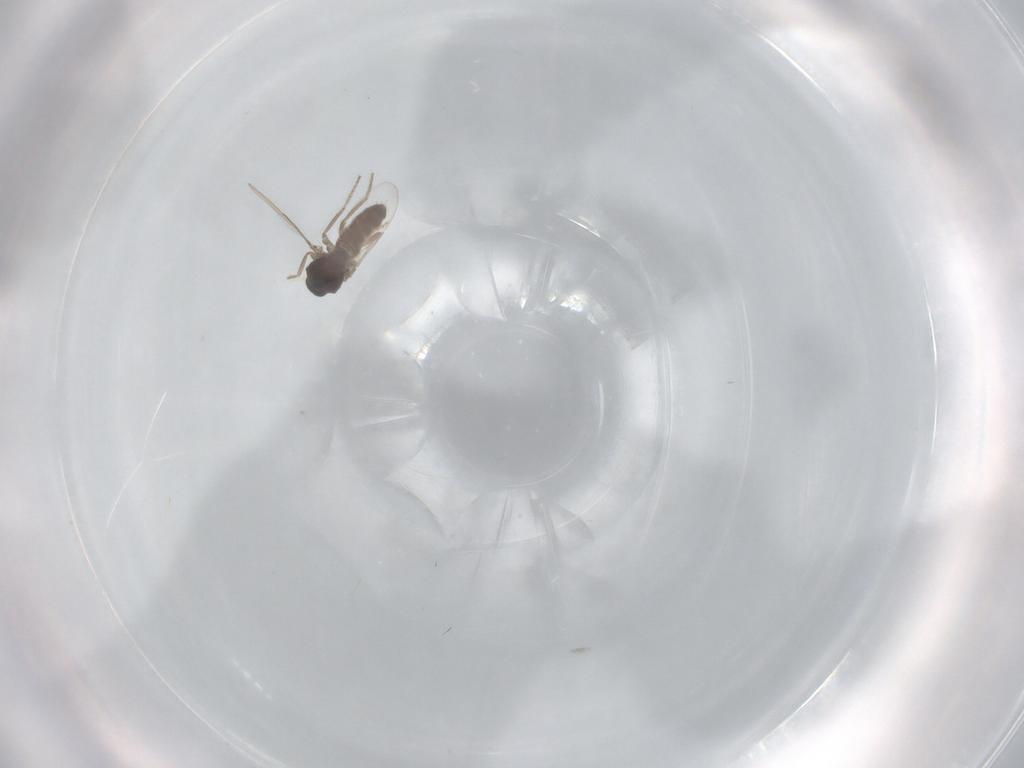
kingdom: Animalia
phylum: Arthropoda
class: Insecta
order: Diptera
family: Ceratopogonidae
